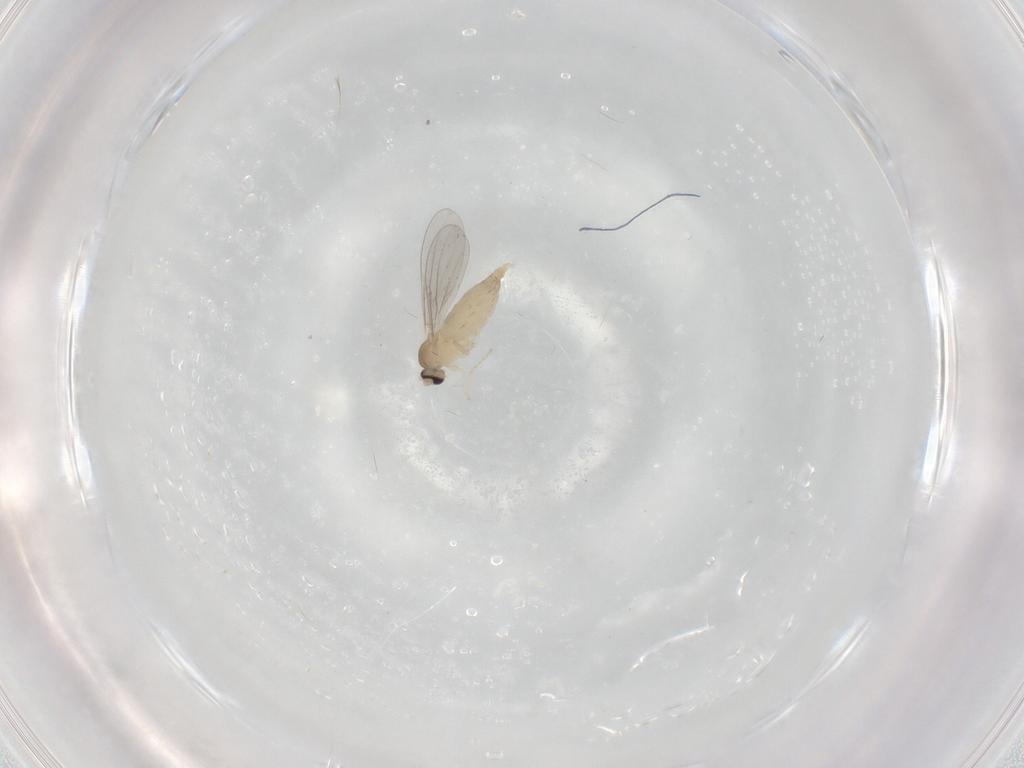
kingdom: Animalia
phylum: Arthropoda
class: Insecta
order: Diptera
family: Cecidomyiidae
